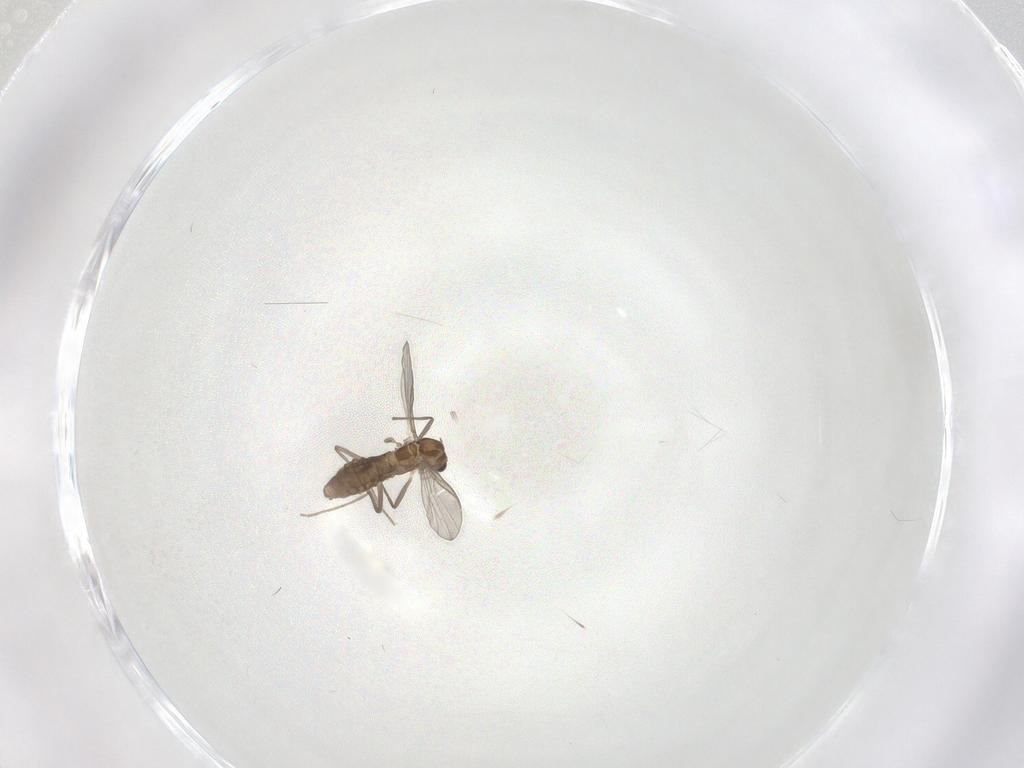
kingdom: Animalia
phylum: Arthropoda
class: Insecta
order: Diptera
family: Chironomidae
